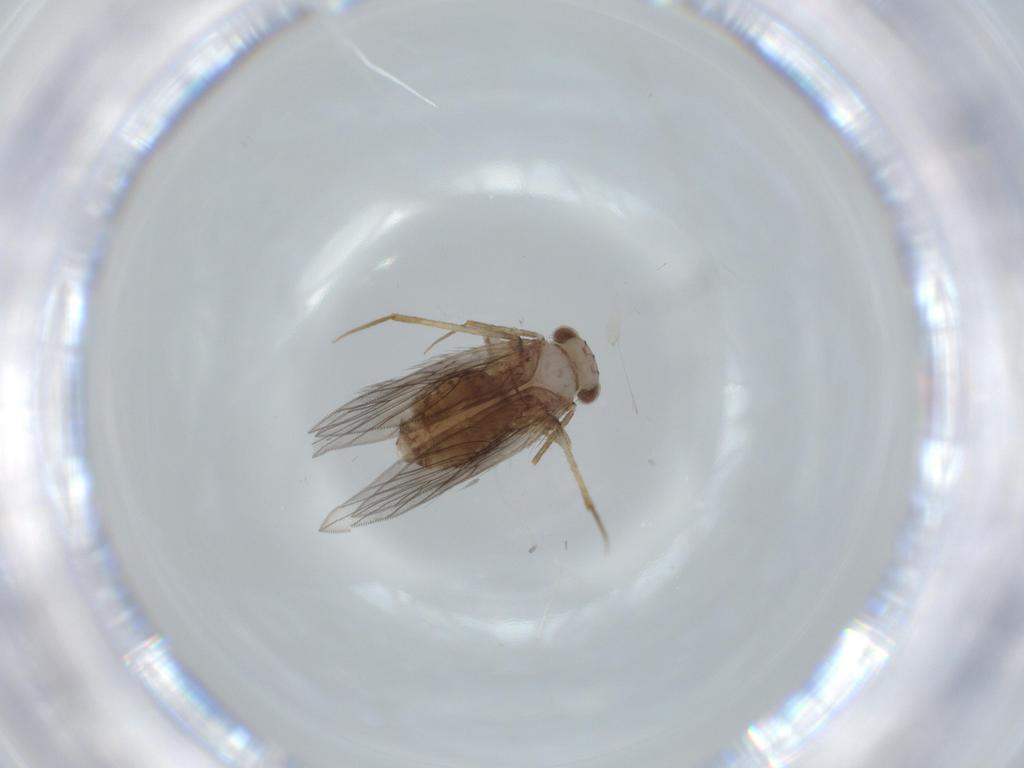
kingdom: Animalia
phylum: Arthropoda
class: Insecta
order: Psocodea
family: Lepidopsocidae
